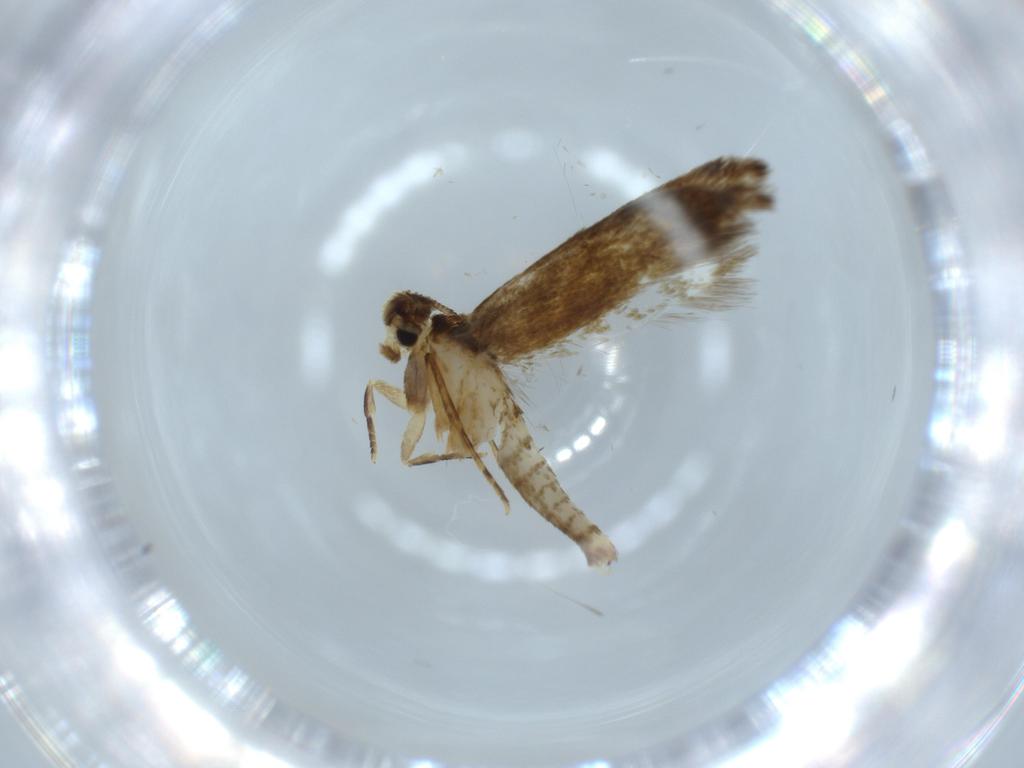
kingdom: Animalia
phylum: Arthropoda
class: Insecta
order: Lepidoptera
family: Tineidae
